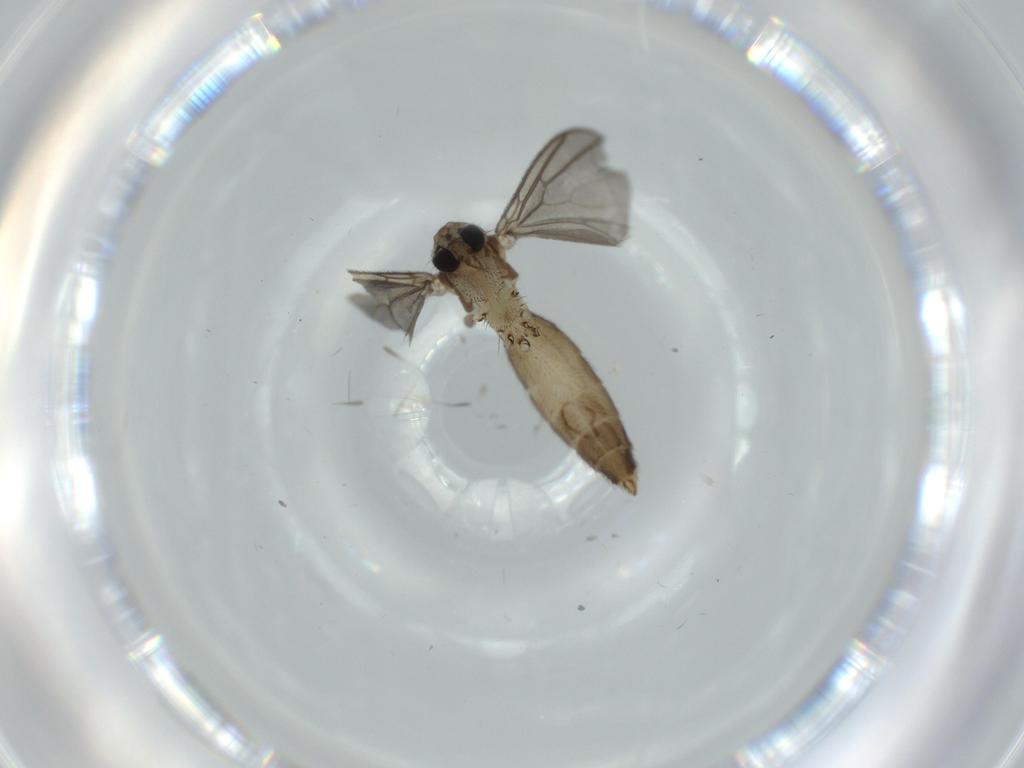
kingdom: Animalia
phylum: Arthropoda
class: Insecta
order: Diptera
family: Mycetophilidae
